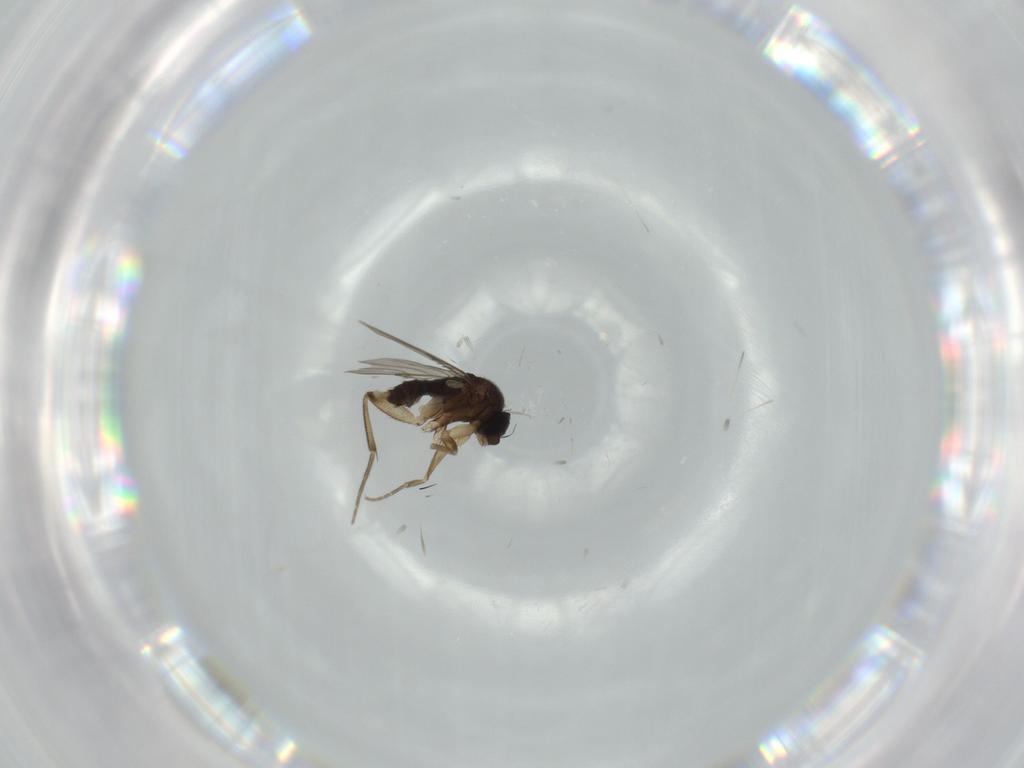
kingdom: Animalia
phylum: Arthropoda
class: Insecta
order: Diptera
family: Phoridae
